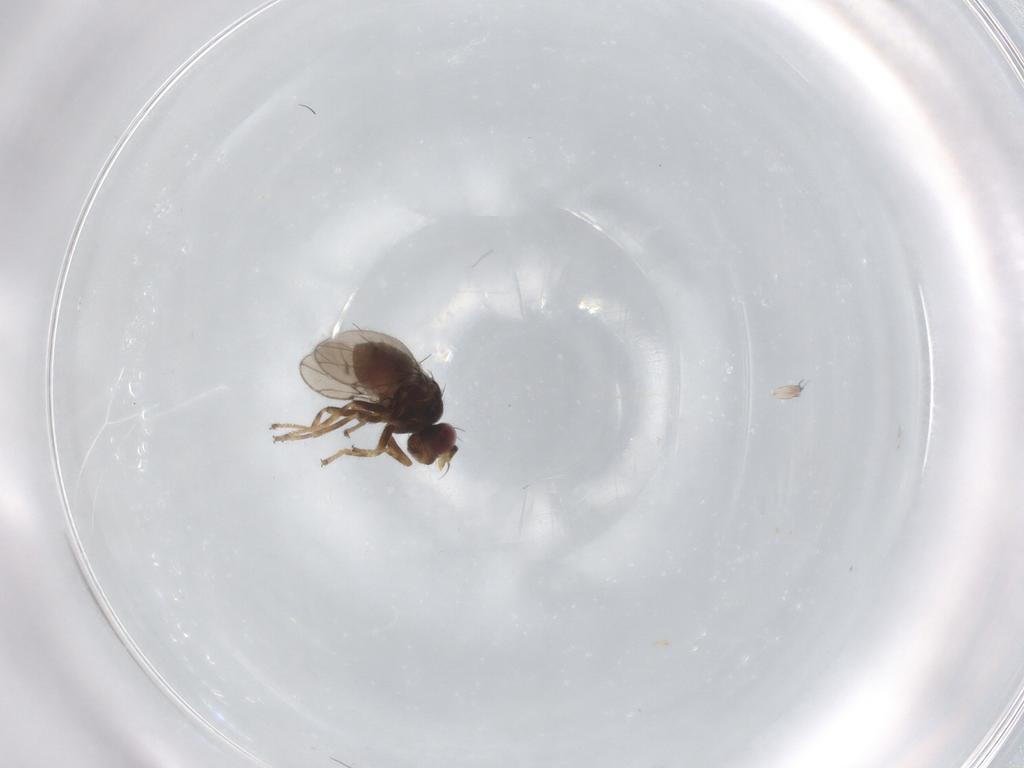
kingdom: Animalia
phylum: Arthropoda
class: Insecta
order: Diptera
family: Ephydridae
